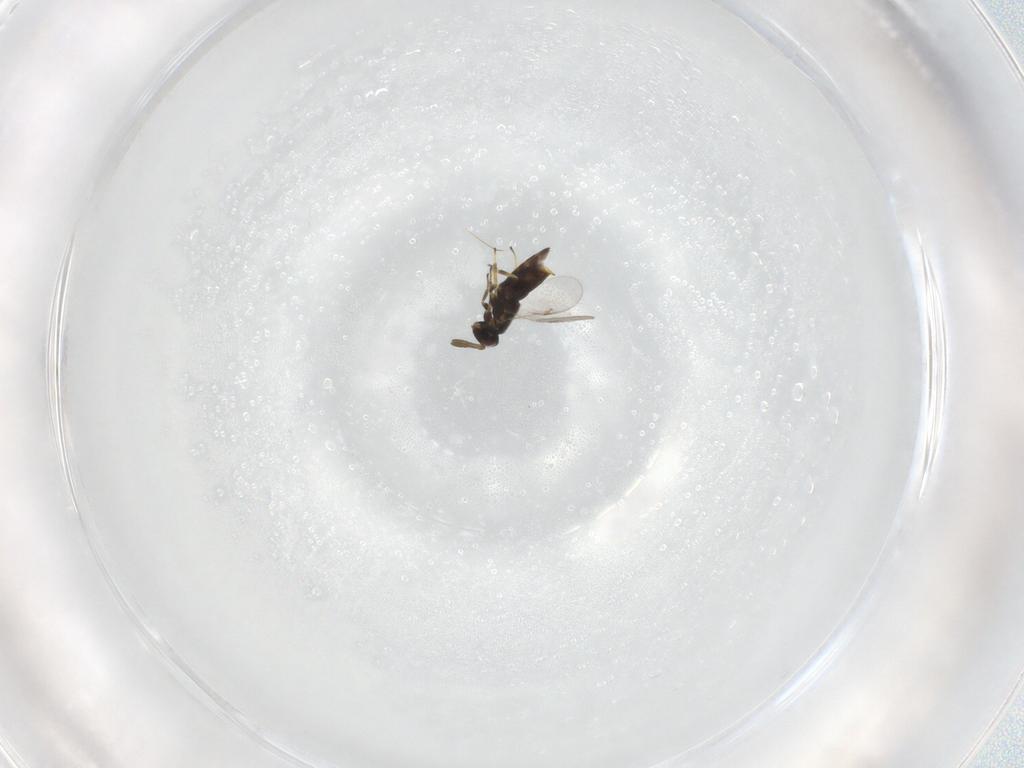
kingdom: Animalia
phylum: Arthropoda
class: Insecta
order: Hymenoptera
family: Encyrtidae
